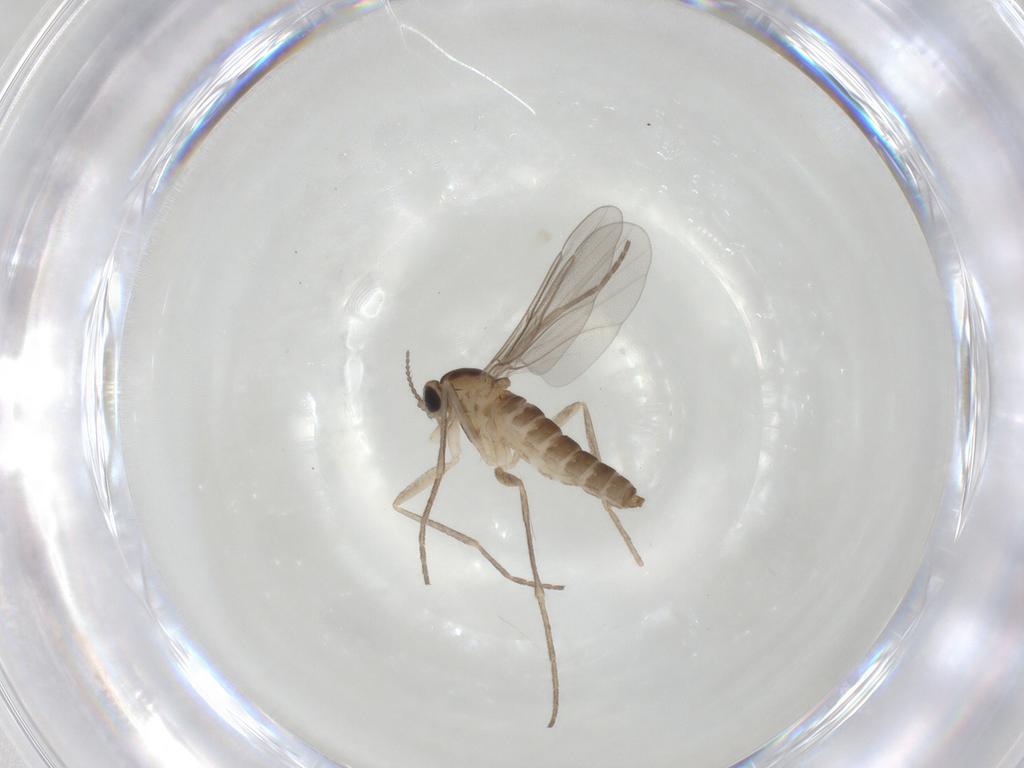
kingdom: Animalia
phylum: Arthropoda
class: Insecta
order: Diptera
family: Cecidomyiidae
